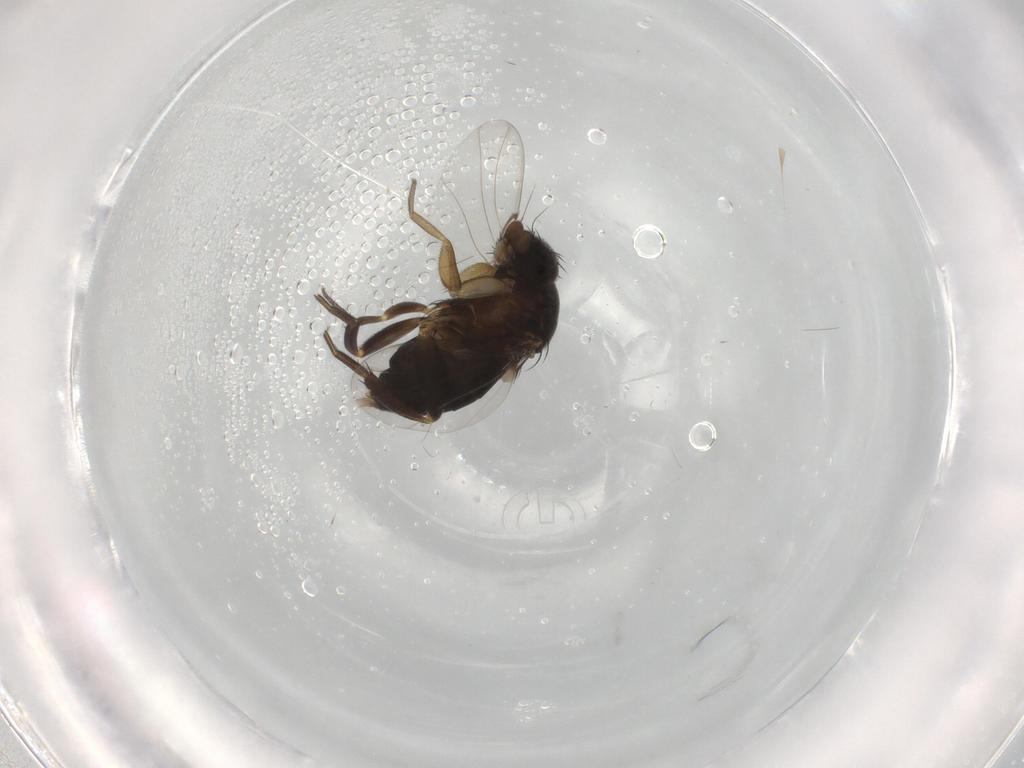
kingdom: Animalia
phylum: Arthropoda
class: Insecta
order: Diptera
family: Phoridae
